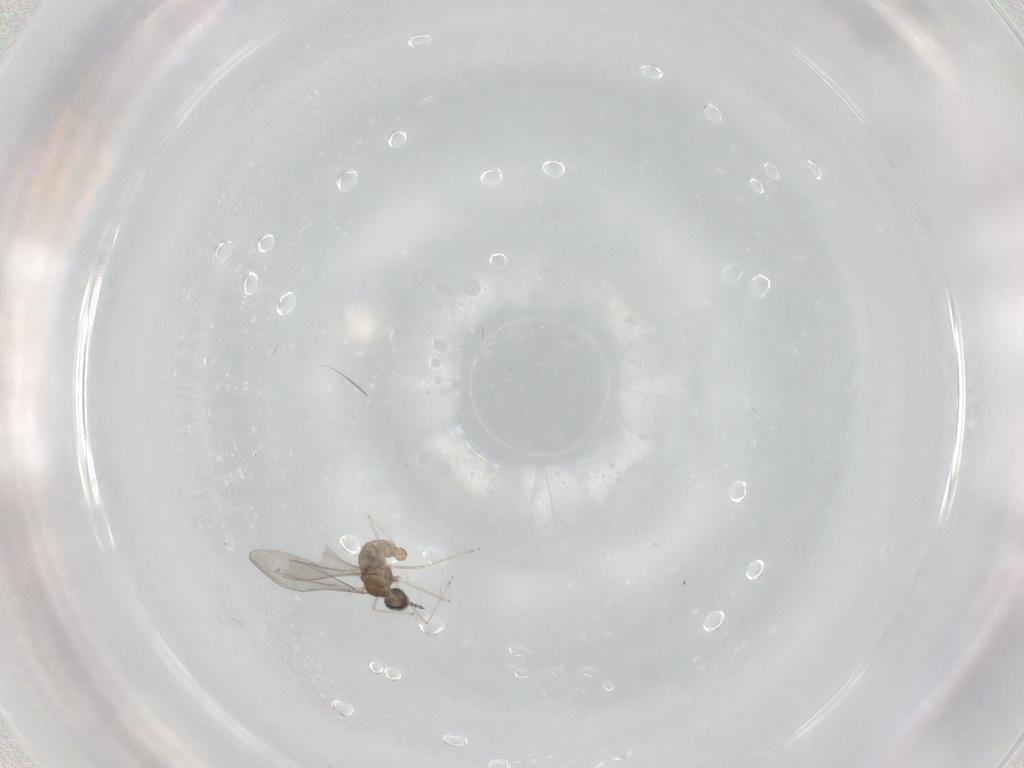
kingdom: Animalia
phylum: Arthropoda
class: Insecta
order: Diptera
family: Cecidomyiidae
